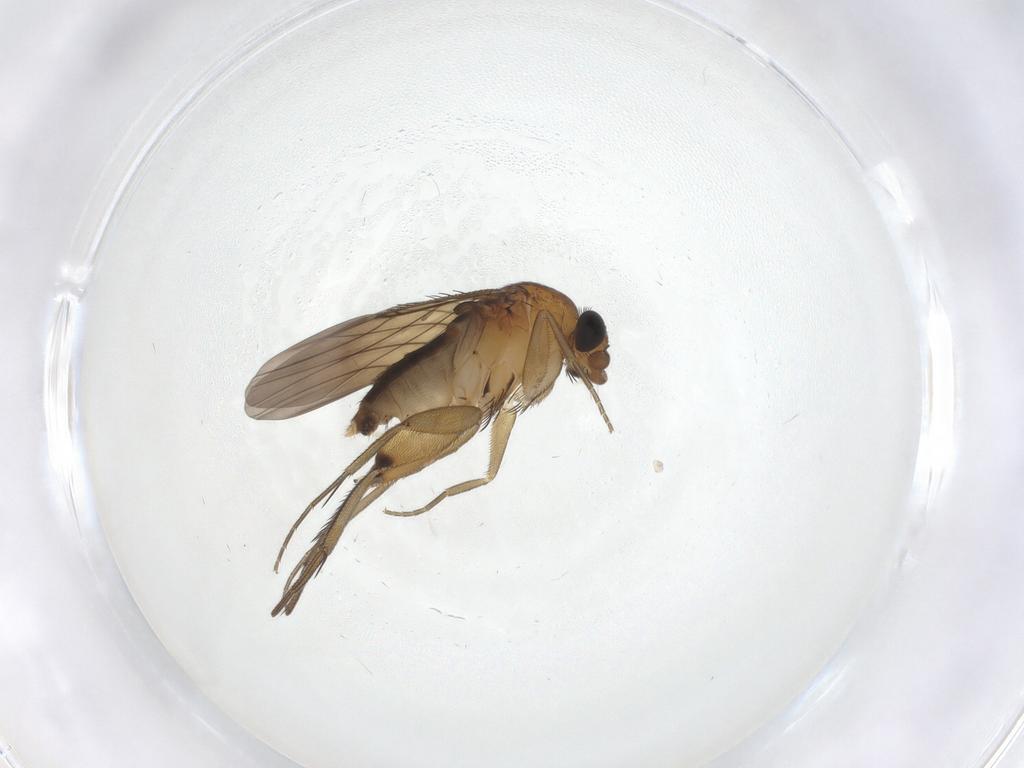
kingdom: Animalia
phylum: Arthropoda
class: Insecta
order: Diptera
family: Phoridae
